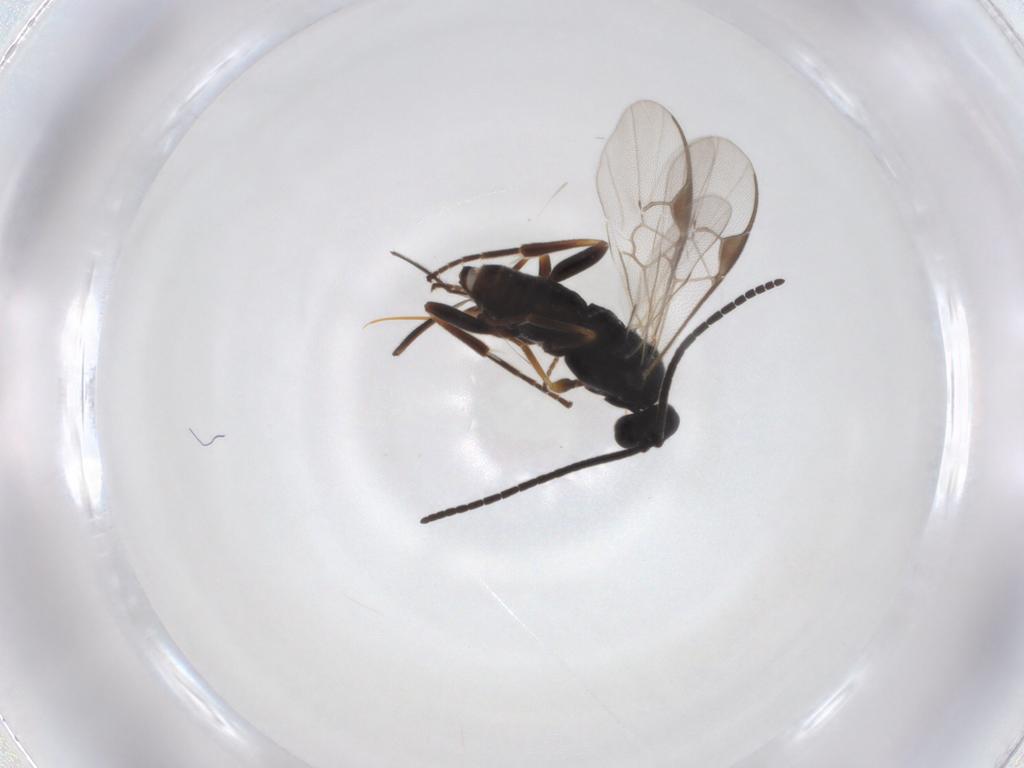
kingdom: Animalia
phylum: Arthropoda
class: Insecta
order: Hymenoptera
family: Braconidae
